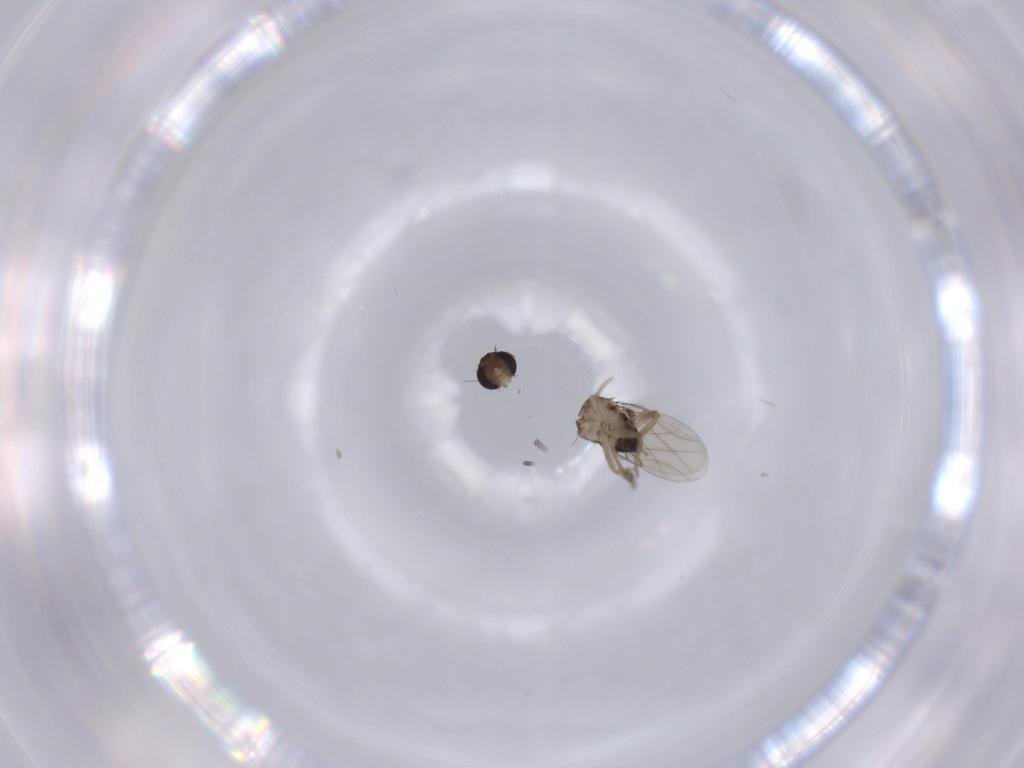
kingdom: Animalia
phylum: Arthropoda
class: Insecta
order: Diptera
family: Phoridae
